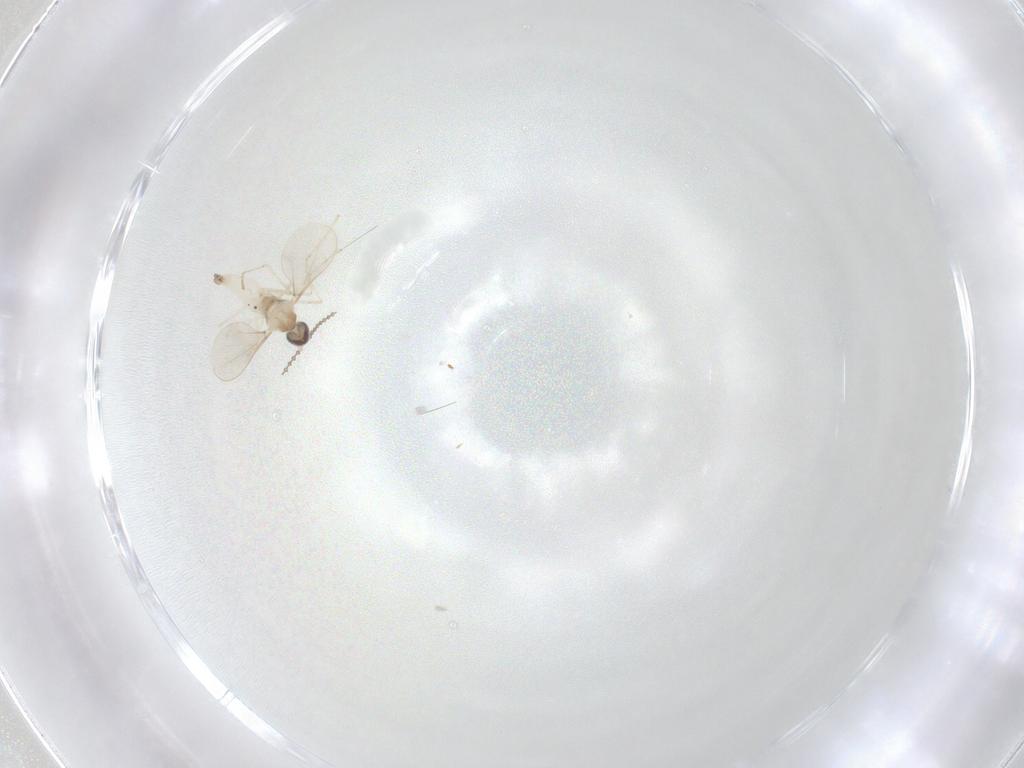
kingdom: Animalia
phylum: Arthropoda
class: Insecta
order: Diptera
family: Cecidomyiidae
